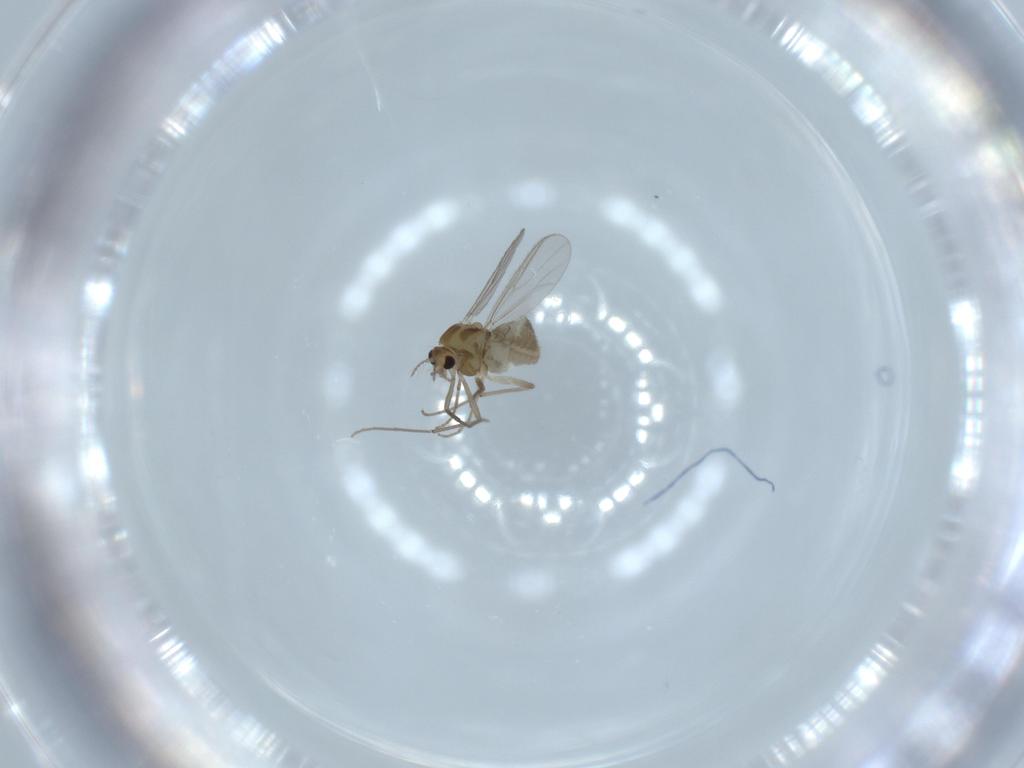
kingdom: Animalia
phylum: Arthropoda
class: Insecta
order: Diptera
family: Chironomidae
